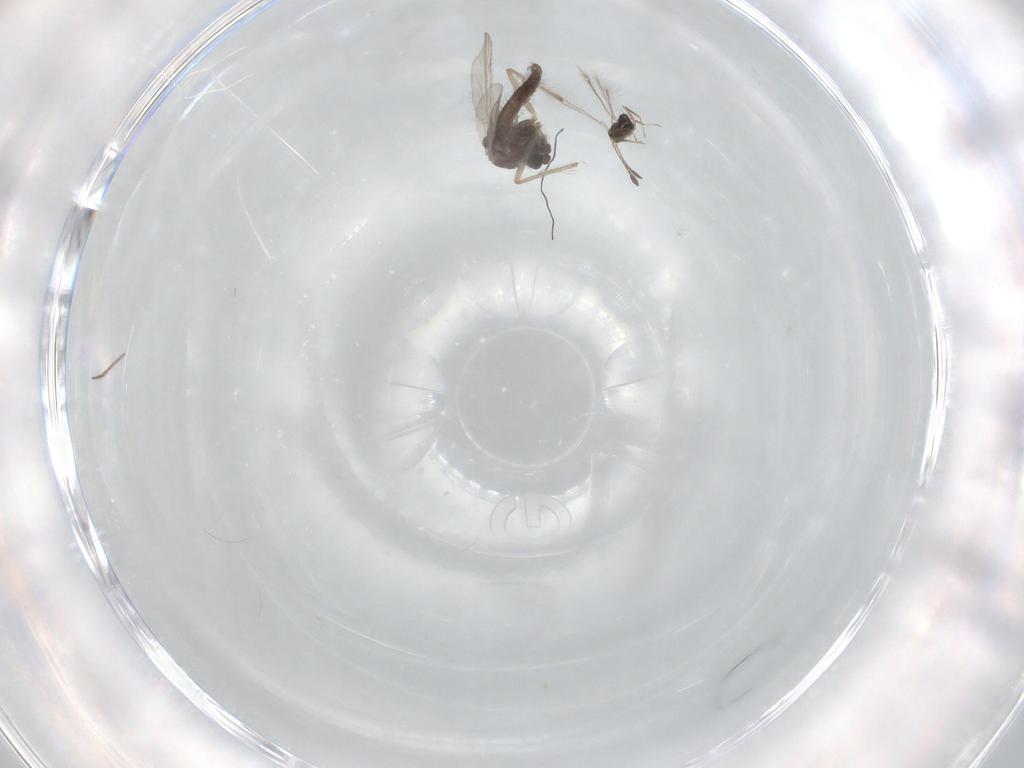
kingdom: Animalia
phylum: Arthropoda
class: Insecta
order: Diptera
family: Chironomidae
